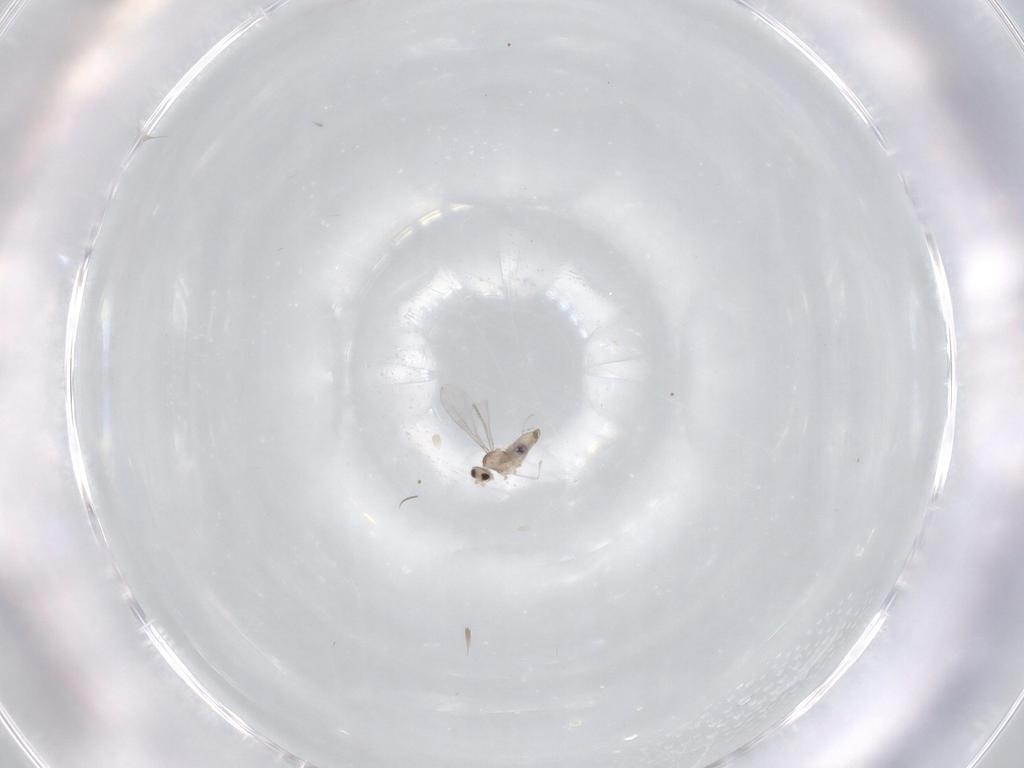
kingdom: Animalia
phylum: Arthropoda
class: Insecta
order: Diptera
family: Cecidomyiidae
